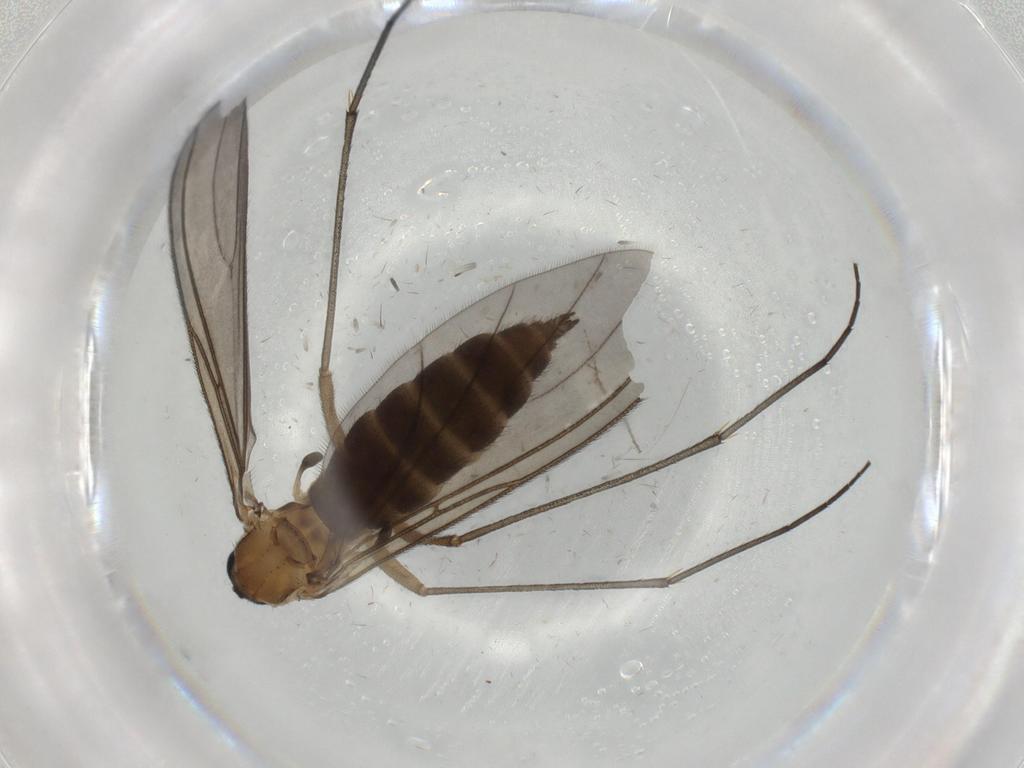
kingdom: Animalia
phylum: Arthropoda
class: Insecta
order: Diptera
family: Sciaridae
